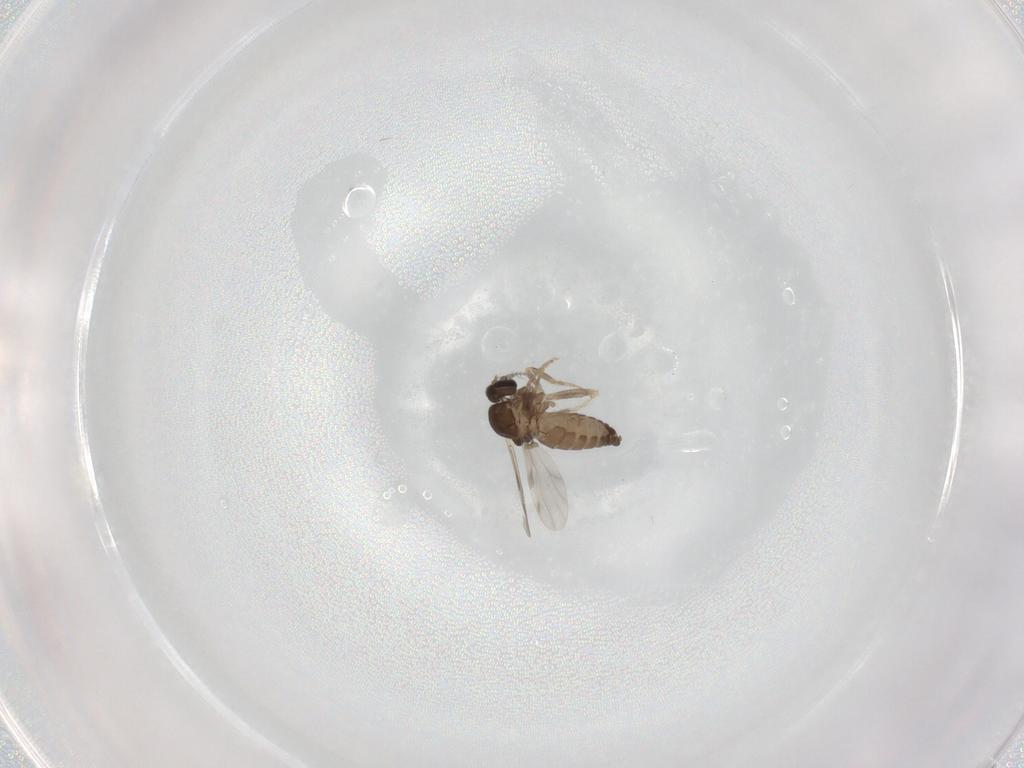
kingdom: Animalia
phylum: Arthropoda
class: Insecta
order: Diptera
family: Ceratopogonidae
